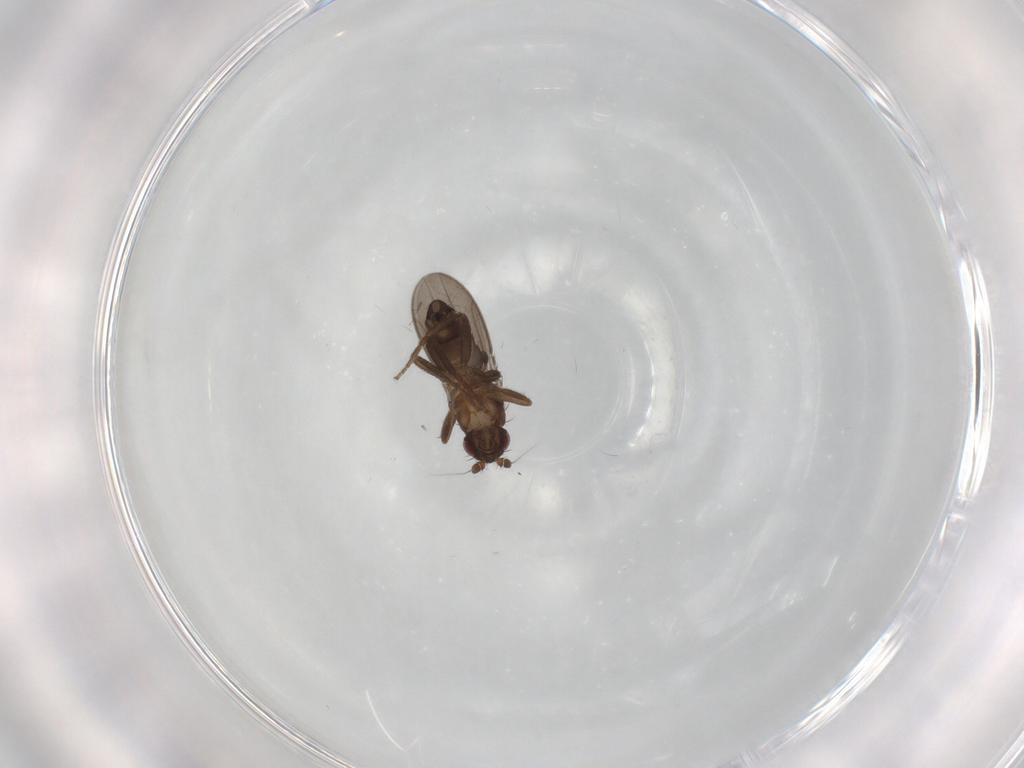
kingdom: Animalia
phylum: Arthropoda
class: Insecta
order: Diptera
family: Sphaeroceridae
